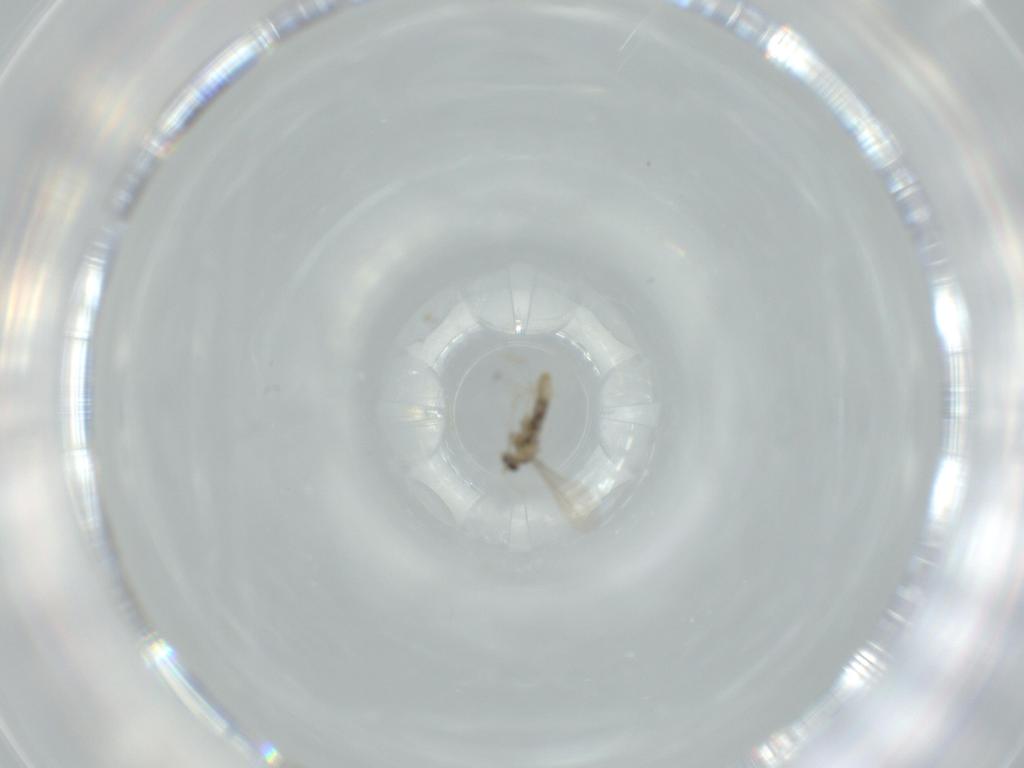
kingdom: Animalia
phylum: Arthropoda
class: Insecta
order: Diptera
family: Cecidomyiidae
